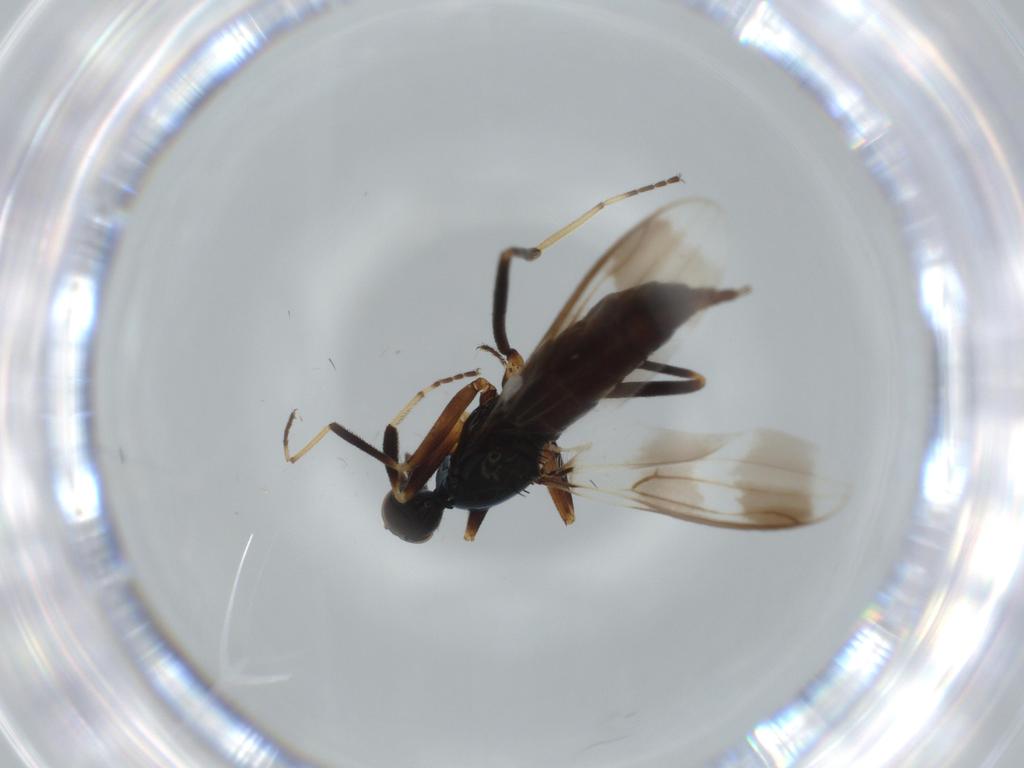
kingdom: Animalia
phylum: Arthropoda
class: Insecta
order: Diptera
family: Hybotidae
